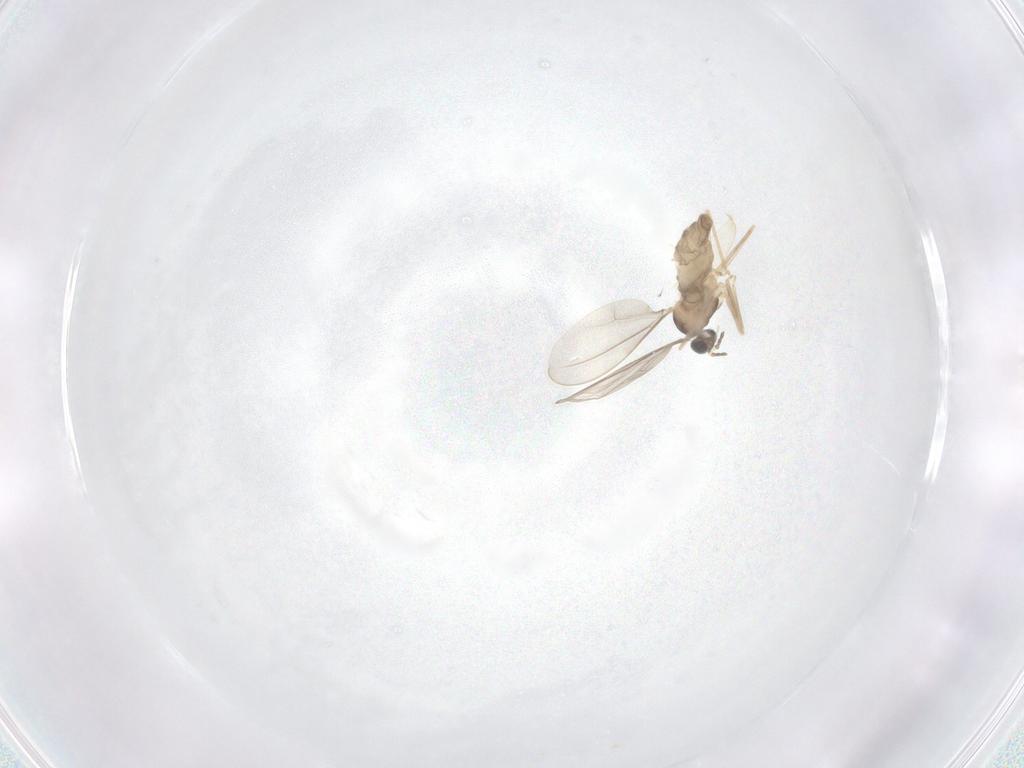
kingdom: Animalia
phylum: Arthropoda
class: Insecta
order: Diptera
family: Cecidomyiidae
